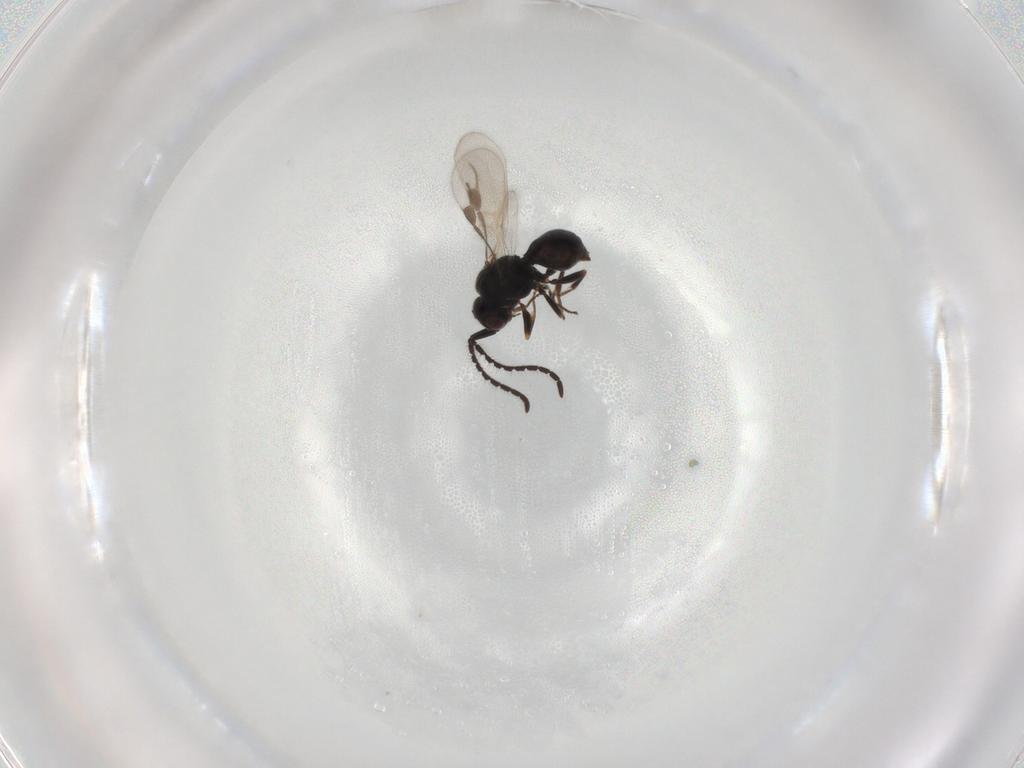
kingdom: Animalia
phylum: Arthropoda
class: Insecta
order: Hymenoptera
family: Megaspilidae
